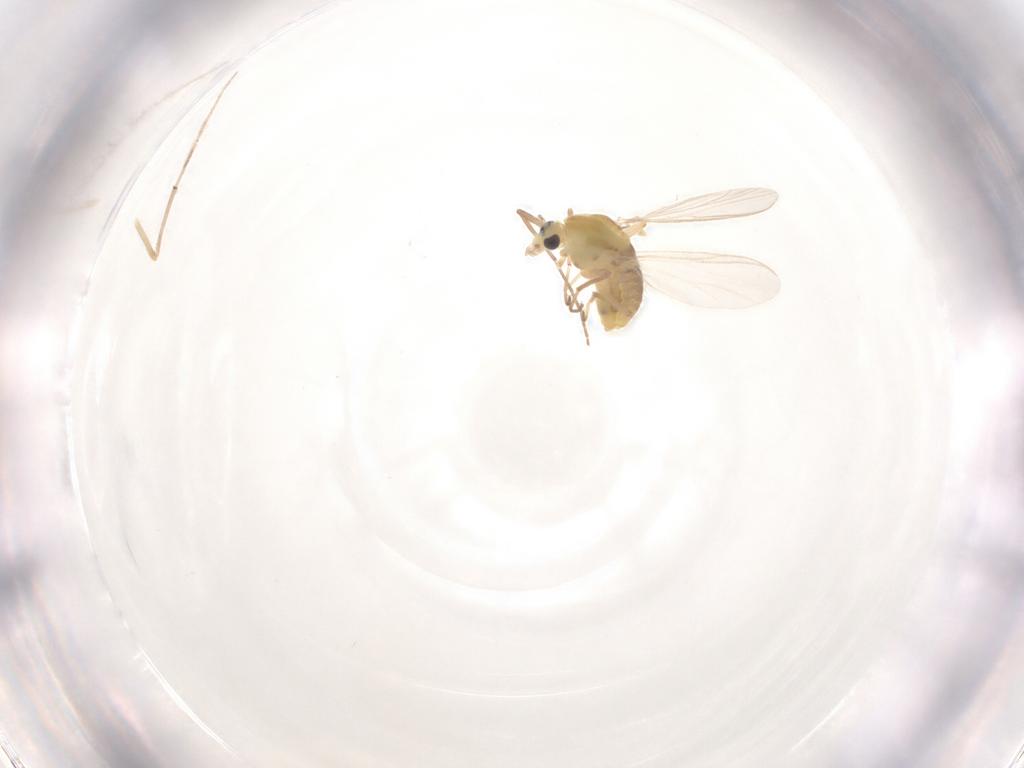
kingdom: Animalia
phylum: Arthropoda
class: Insecta
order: Diptera
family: Chironomidae
